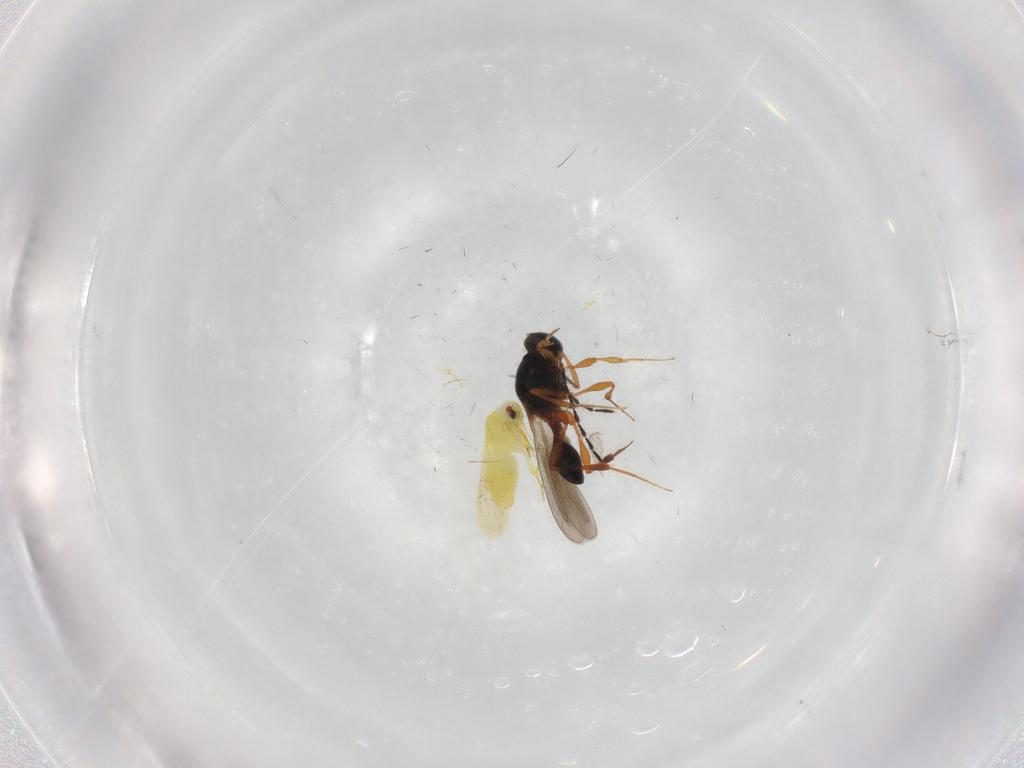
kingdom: Animalia
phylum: Arthropoda
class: Insecta
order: Hemiptera
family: Aleyrodidae
